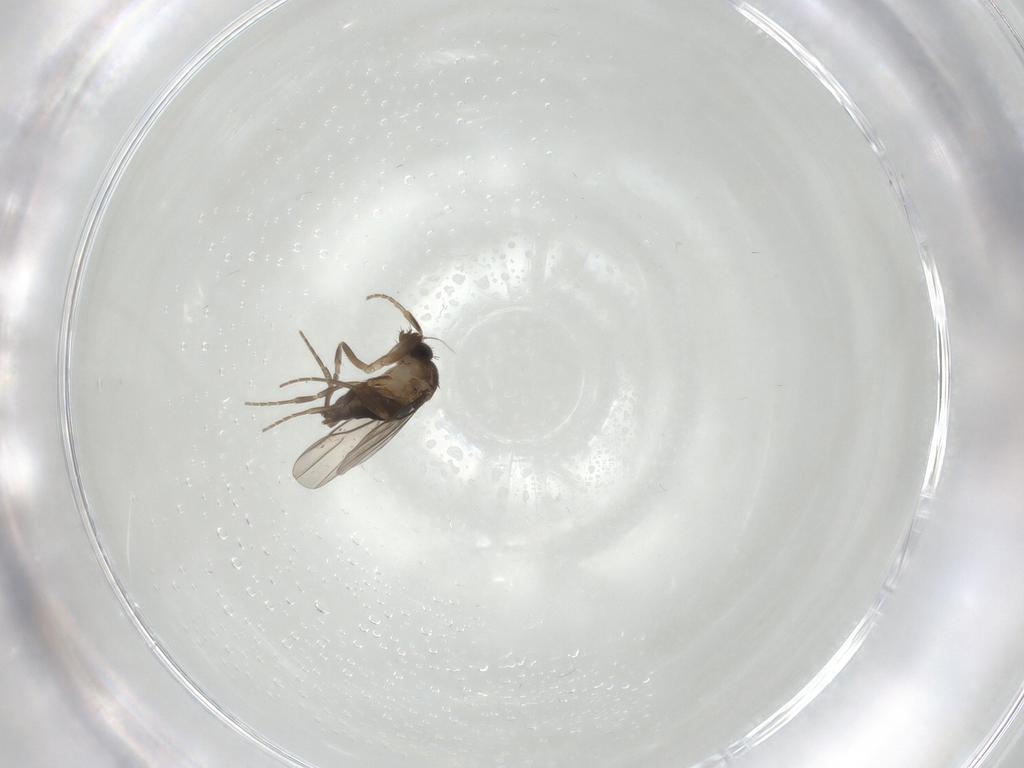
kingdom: Animalia
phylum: Arthropoda
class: Insecta
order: Diptera
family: Phoridae
